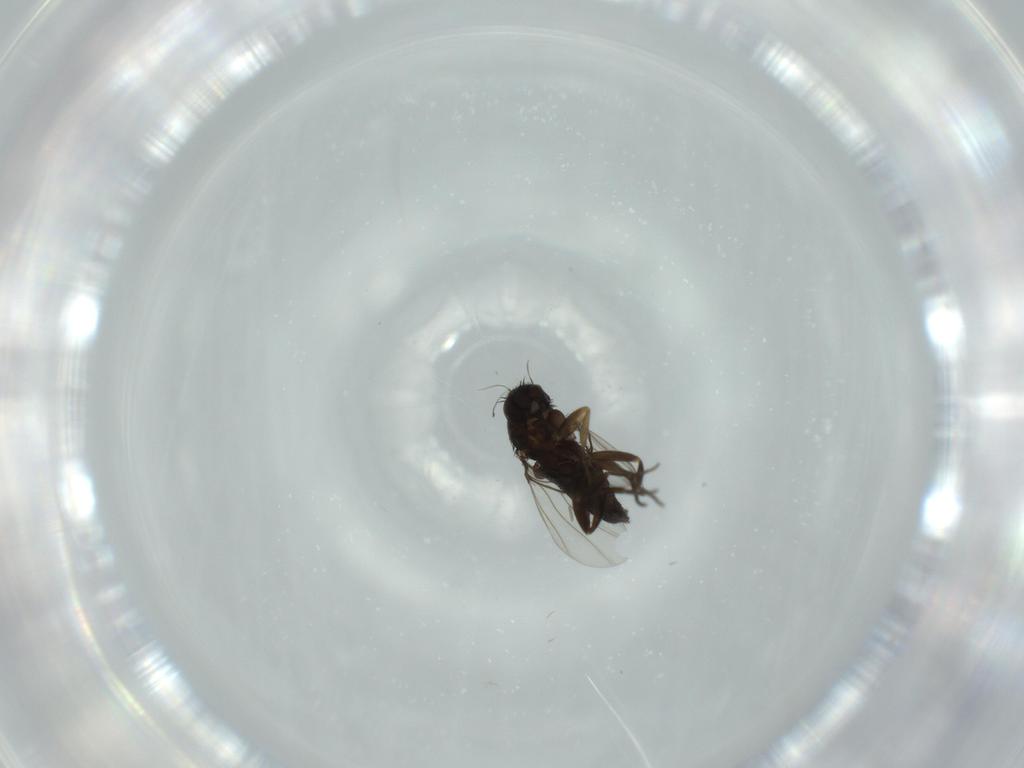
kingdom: Animalia
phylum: Arthropoda
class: Insecta
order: Diptera
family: Phoridae
